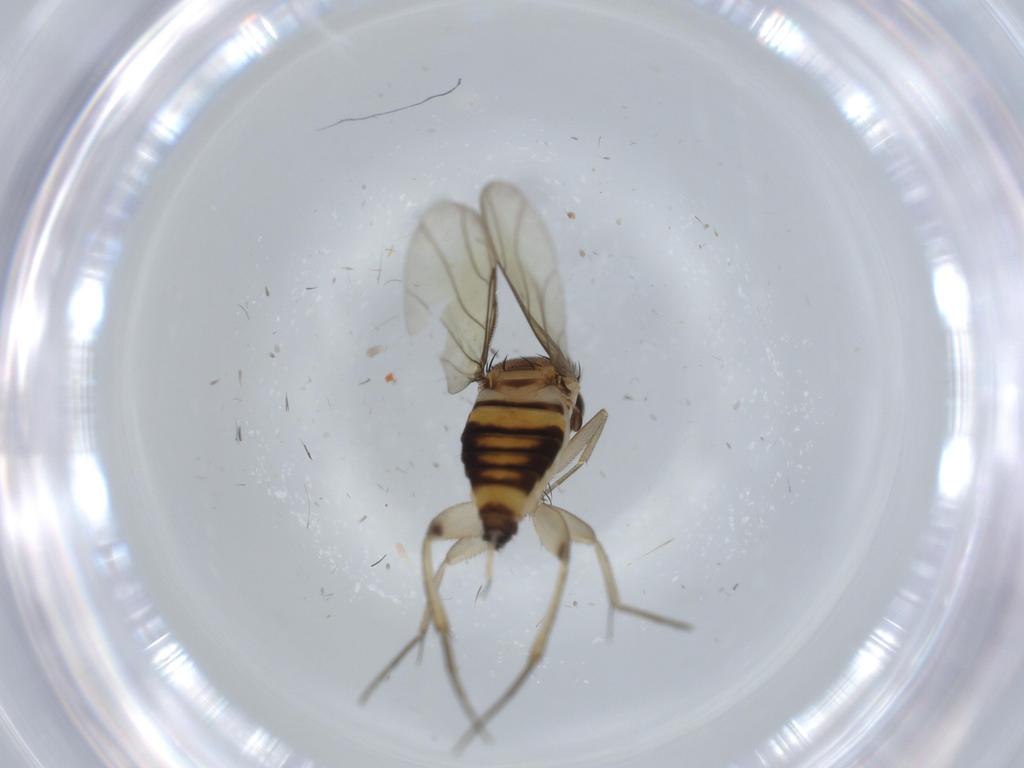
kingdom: Animalia
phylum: Arthropoda
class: Insecta
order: Diptera
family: Phoridae
